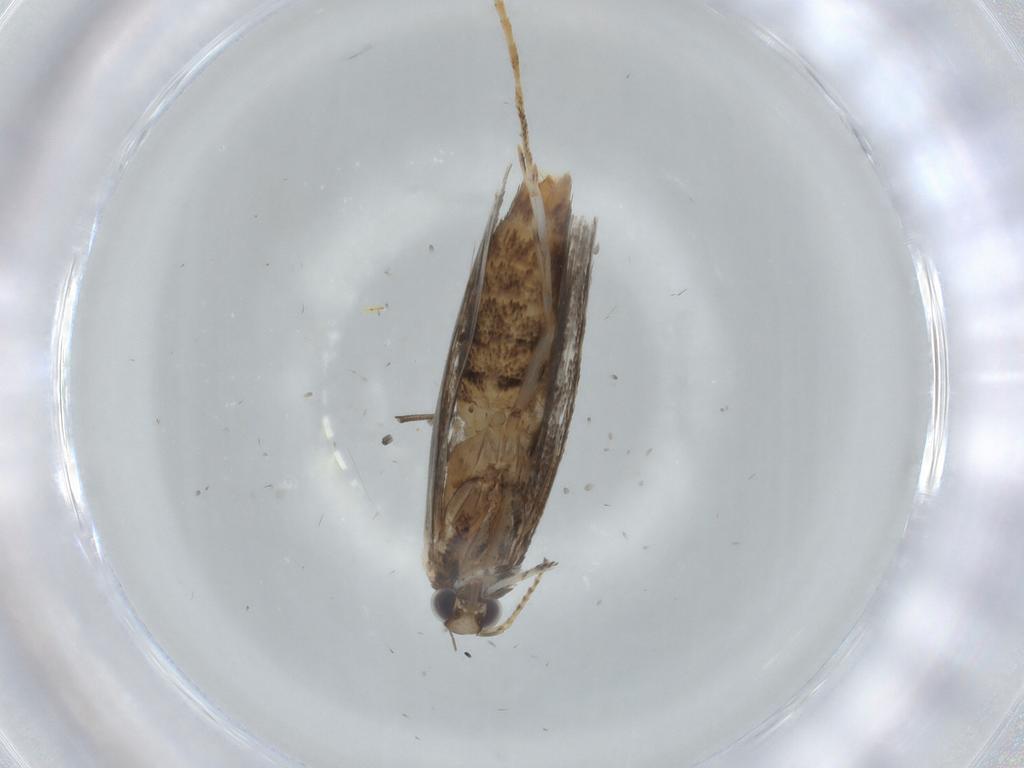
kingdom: Animalia
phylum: Arthropoda
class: Insecta
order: Lepidoptera
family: Gracillariidae
